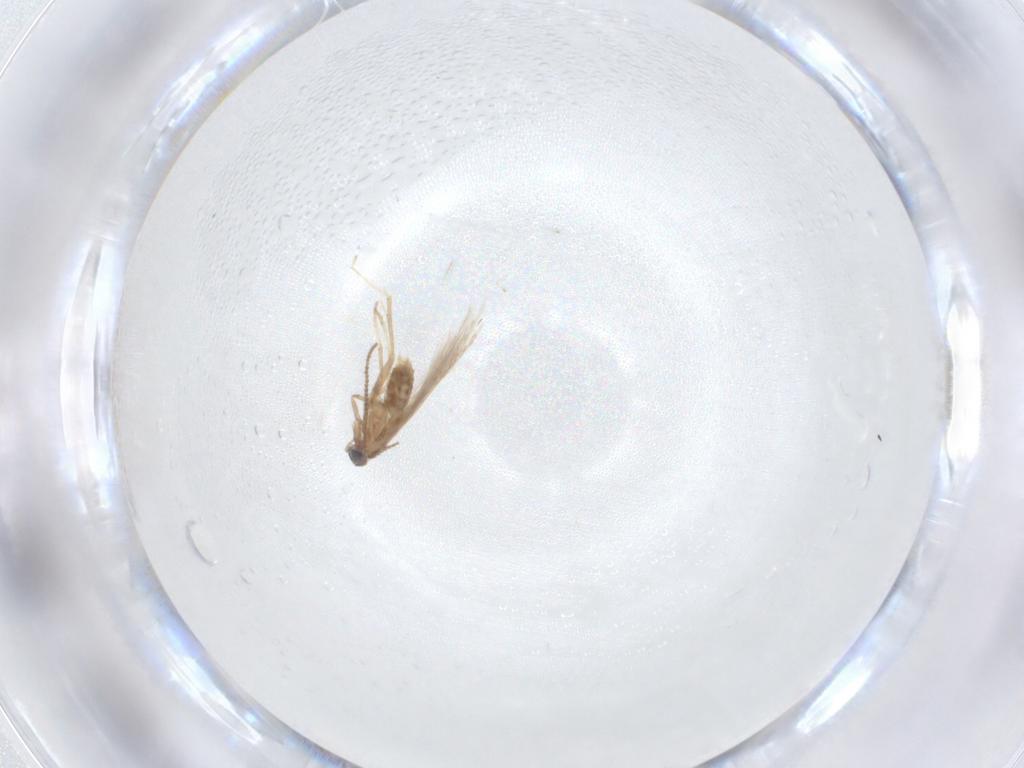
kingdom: Animalia
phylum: Arthropoda
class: Insecta
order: Lepidoptera
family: Nepticulidae
